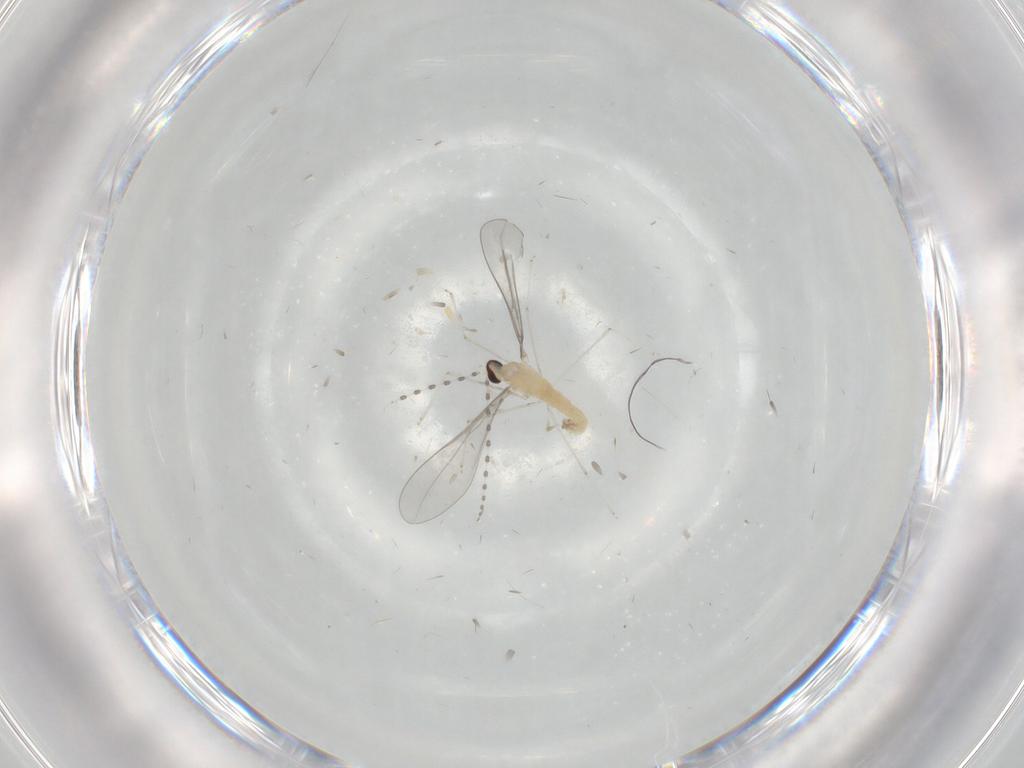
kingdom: Animalia
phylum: Arthropoda
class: Insecta
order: Diptera
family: Cecidomyiidae
